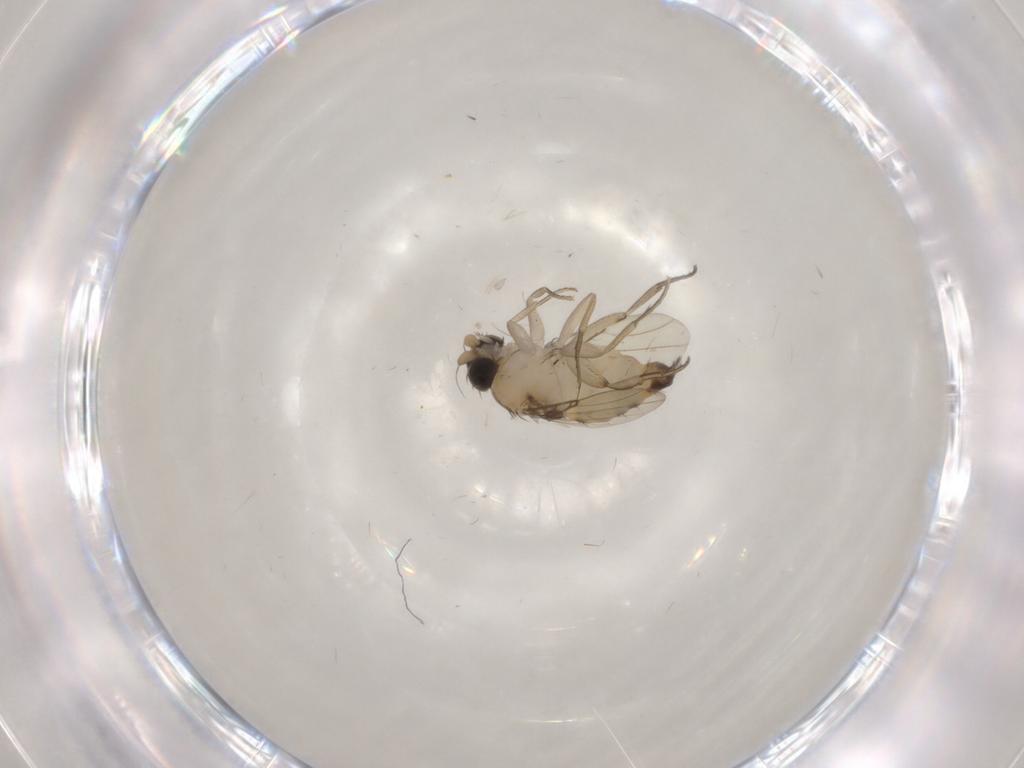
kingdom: Animalia
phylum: Arthropoda
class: Insecta
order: Diptera
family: Phoridae
